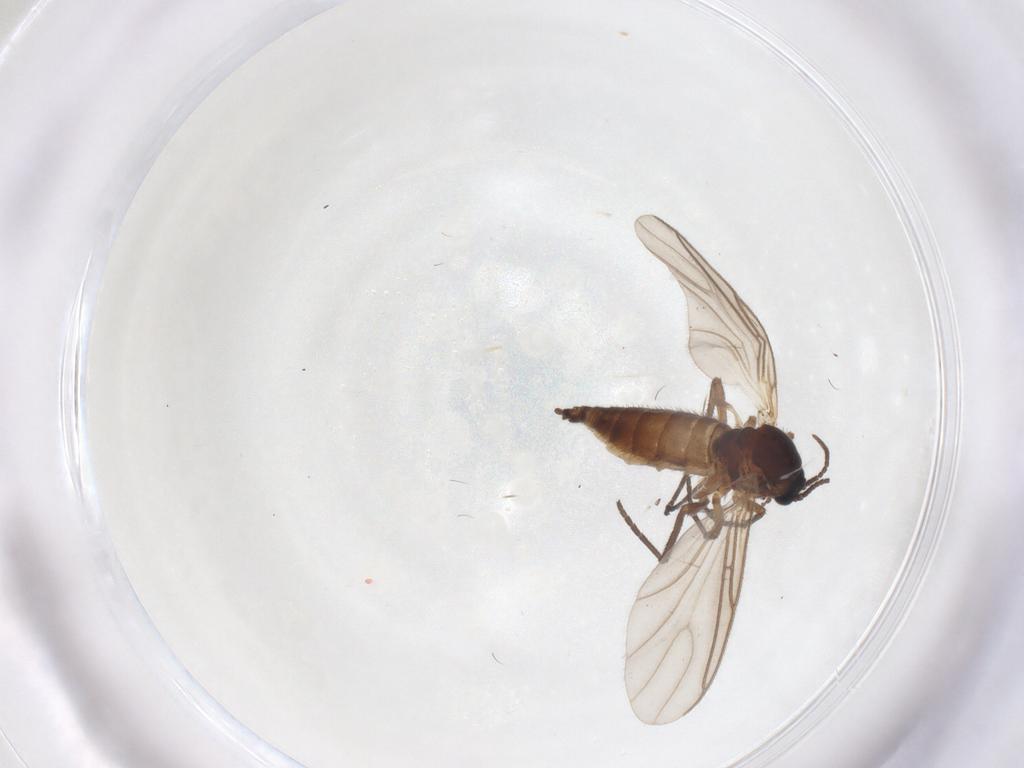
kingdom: Animalia
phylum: Arthropoda
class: Insecta
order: Diptera
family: Sciaridae
